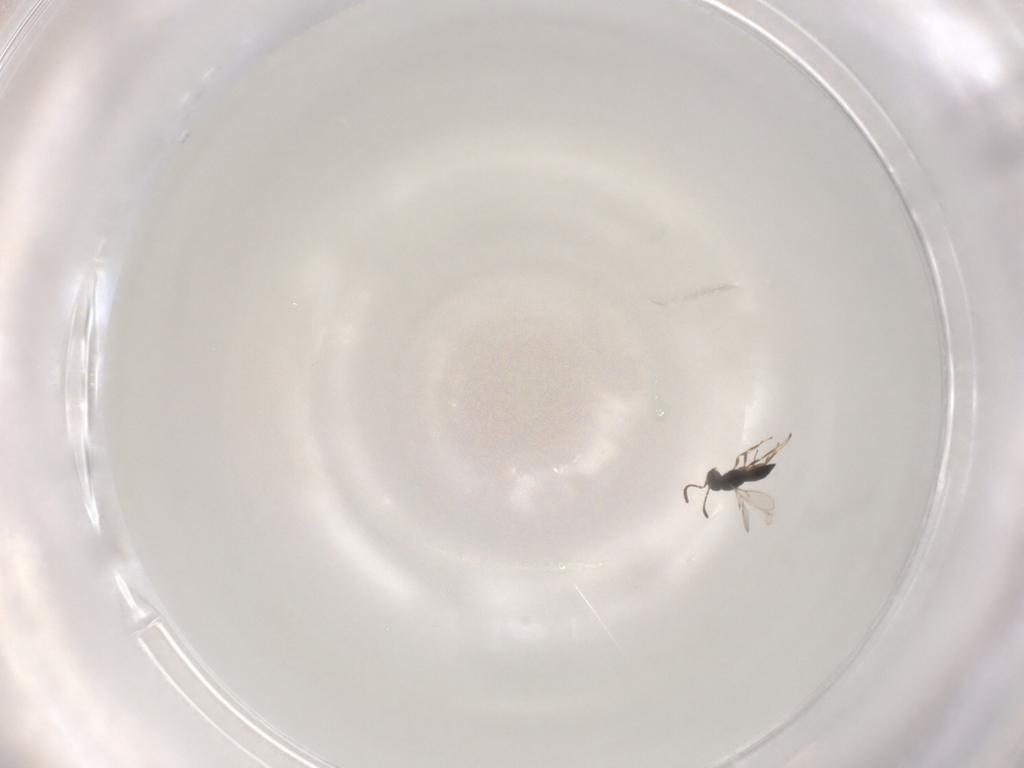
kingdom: Animalia
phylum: Arthropoda
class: Insecta
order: Hymenoptera
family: Scelionidae
